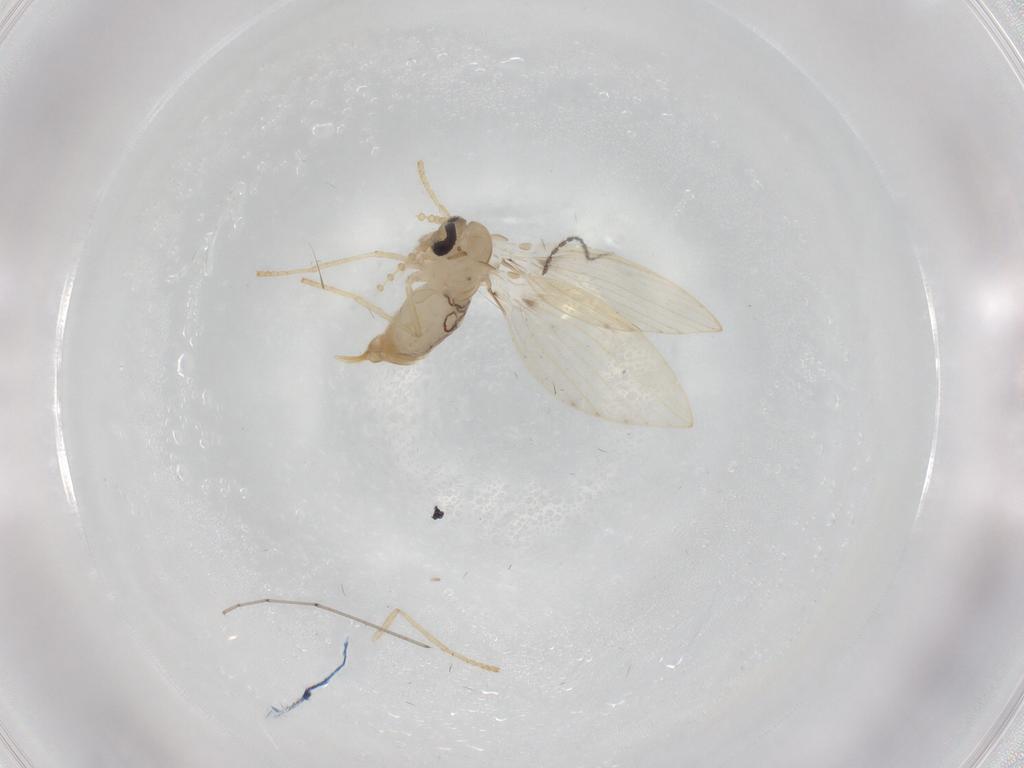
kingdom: Animalia
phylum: Arthropoda
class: Insecta
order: Diptera
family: Psychodidae
